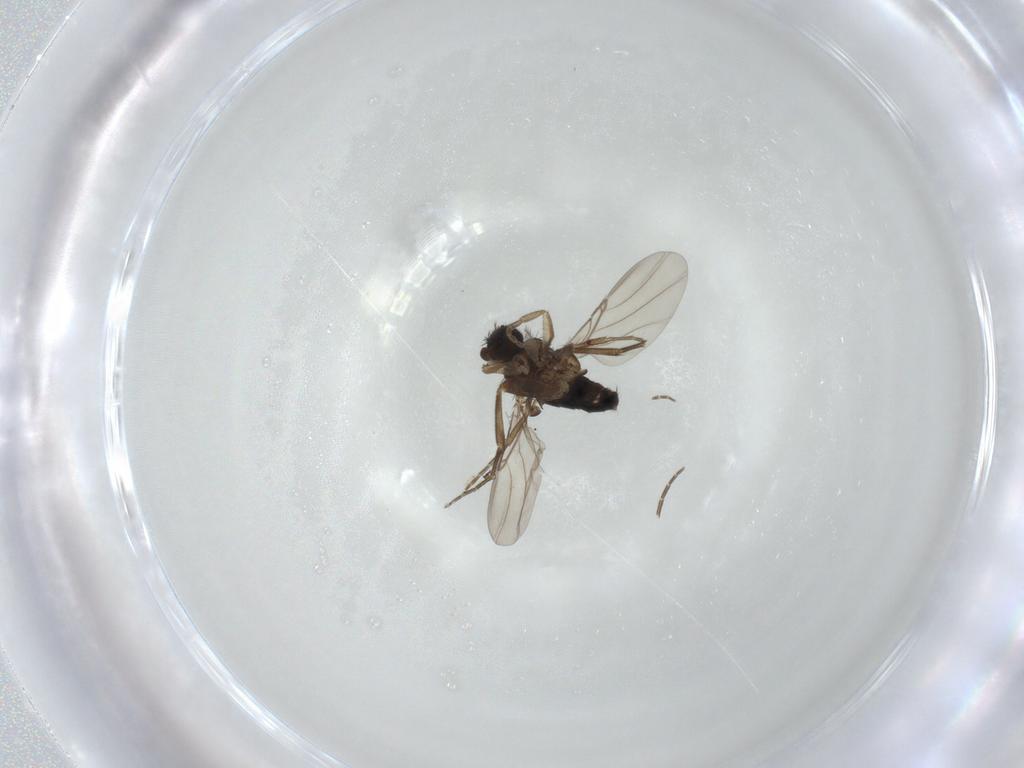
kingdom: Animalia
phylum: Arthropoda
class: Insecta
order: Diptera
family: Phoridae
